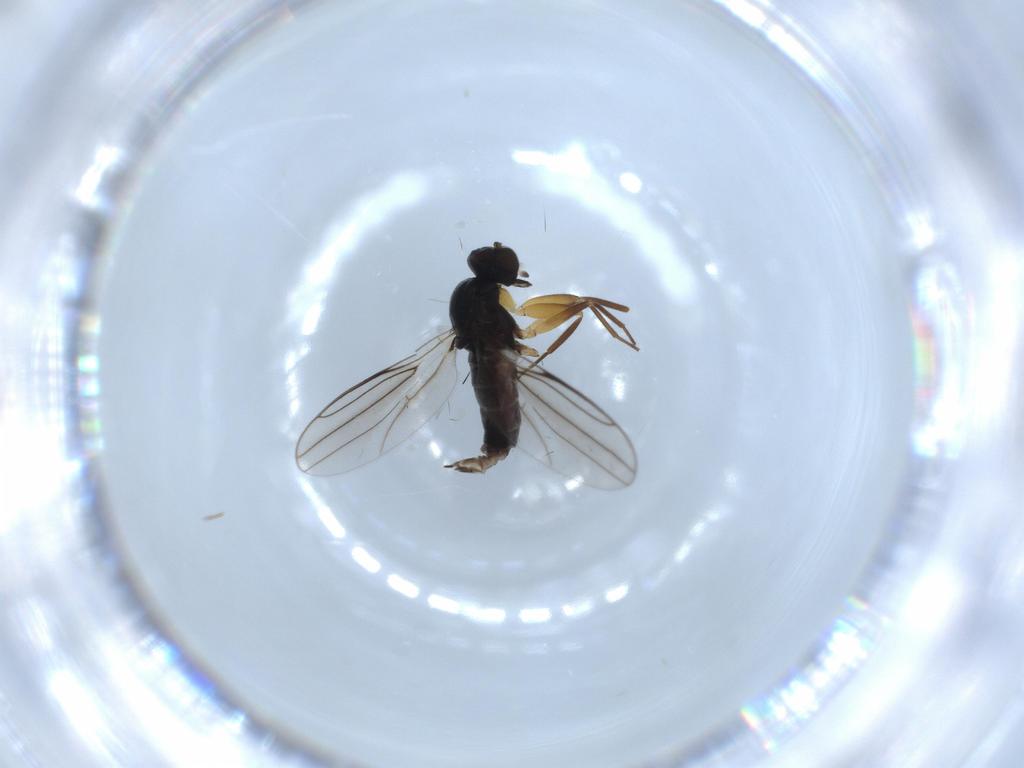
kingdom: Animalia
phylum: Arthropoda
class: Insecta
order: Diptera
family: Hybotidae
